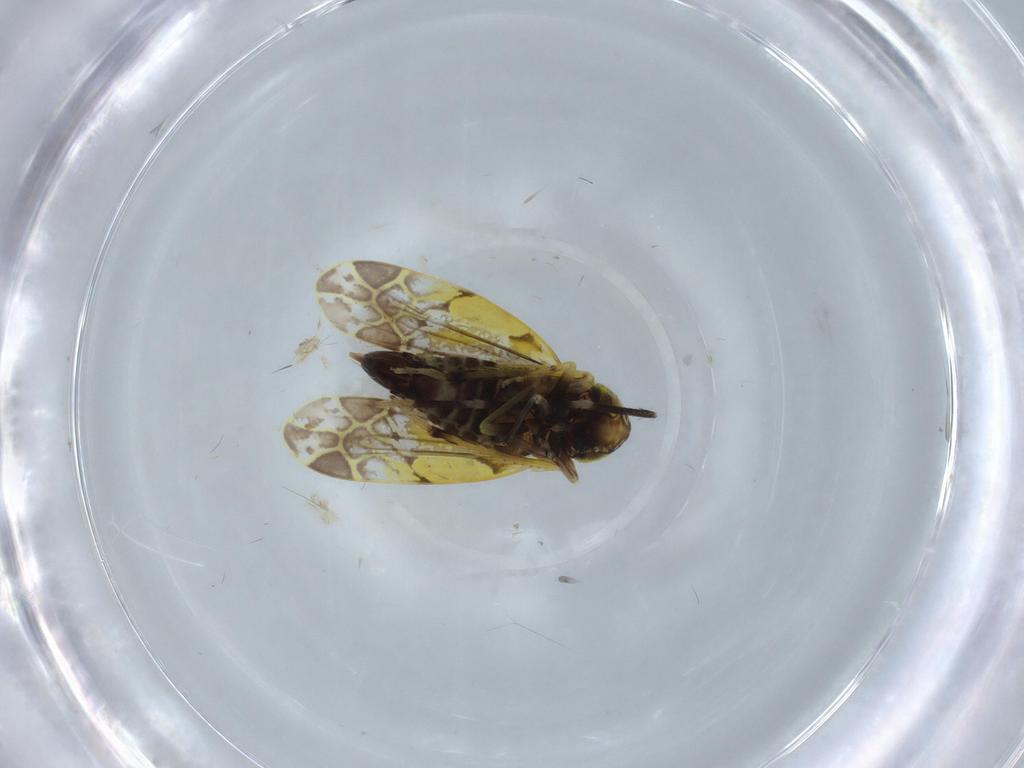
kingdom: Animalia
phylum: Arthropoda
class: Insecta
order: Hemiptera
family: Cicadellidae
